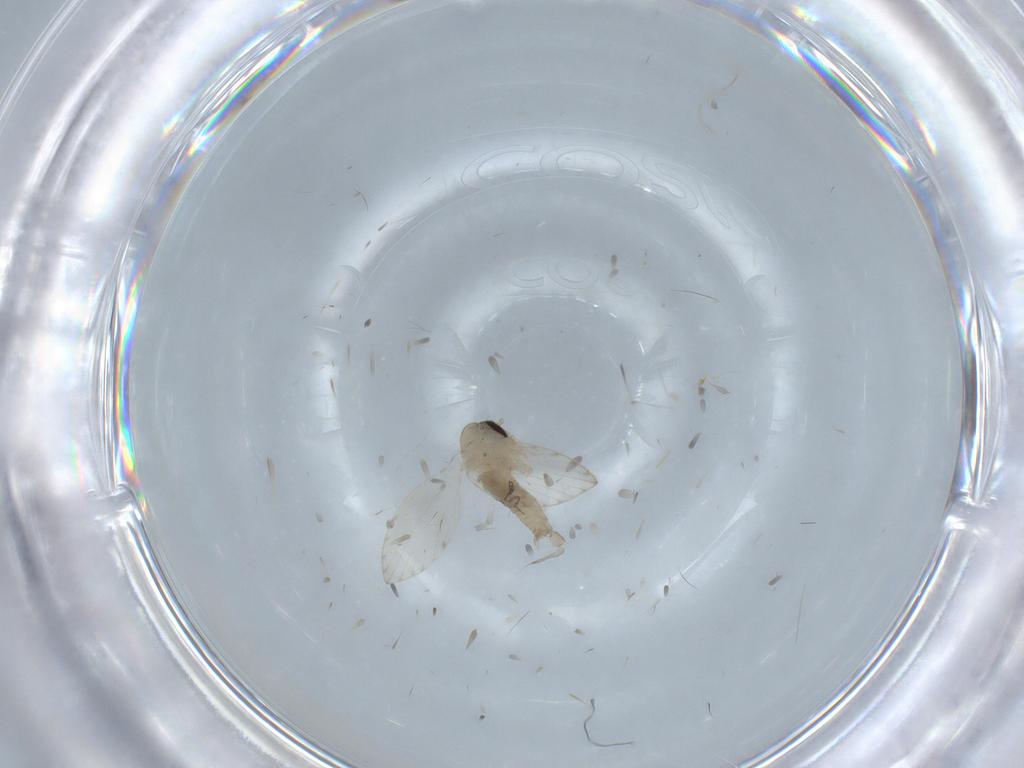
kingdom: Animalia
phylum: Arthropoda
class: Insecta
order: Diptera
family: Psychodidae
